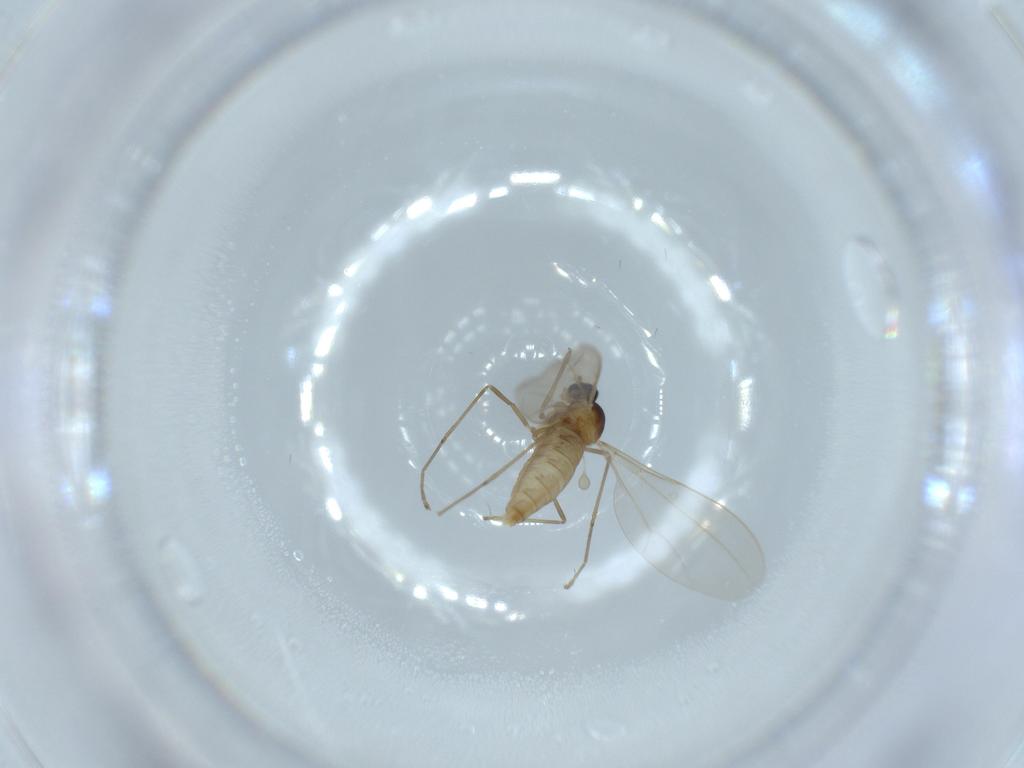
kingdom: Animalia
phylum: Arthropoda
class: Insecta
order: Diptera
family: Cecidomyiidae
